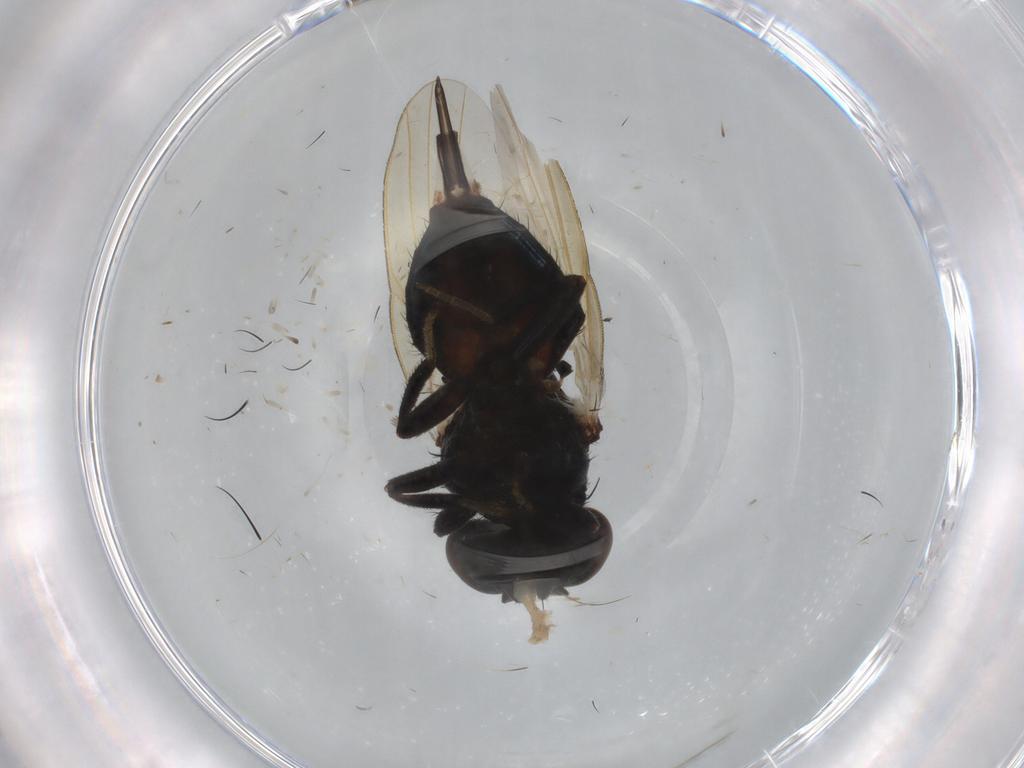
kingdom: Animalia
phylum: Arthropoda
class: Insecta
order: Diptera
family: Calliphoridae
